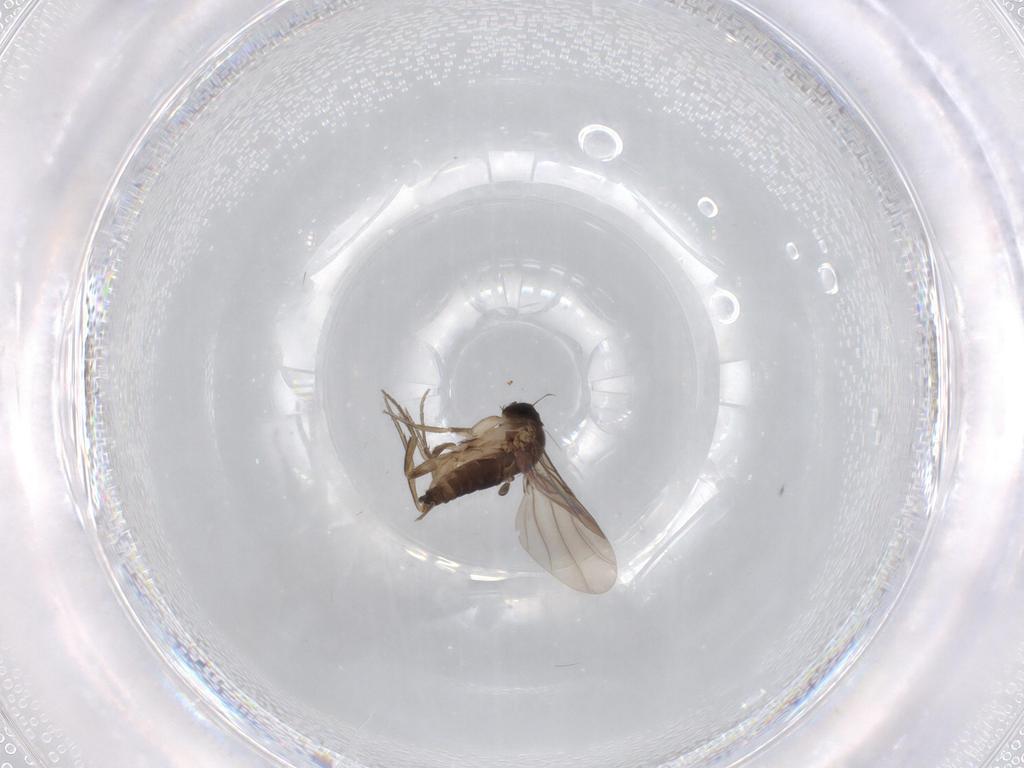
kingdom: Animalia
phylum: Arthropoda
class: Insecta
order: Diptera
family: Phoridae
